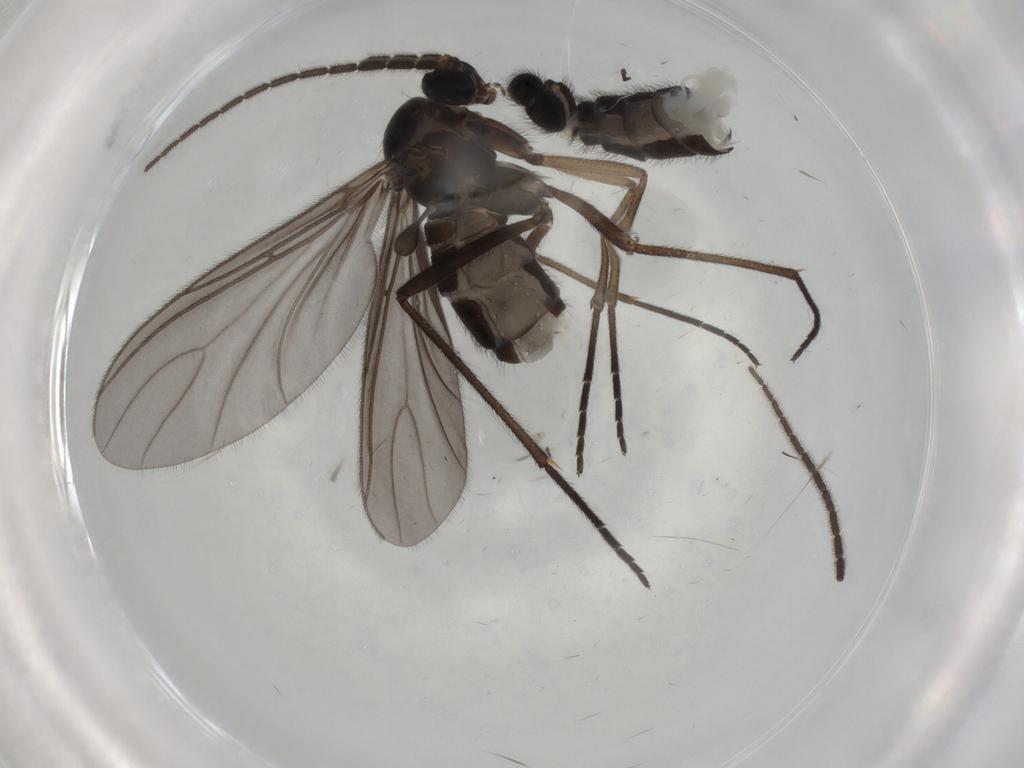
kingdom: Animalia
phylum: Arthropoda
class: Insecta
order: Diptera
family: Sciaridae
